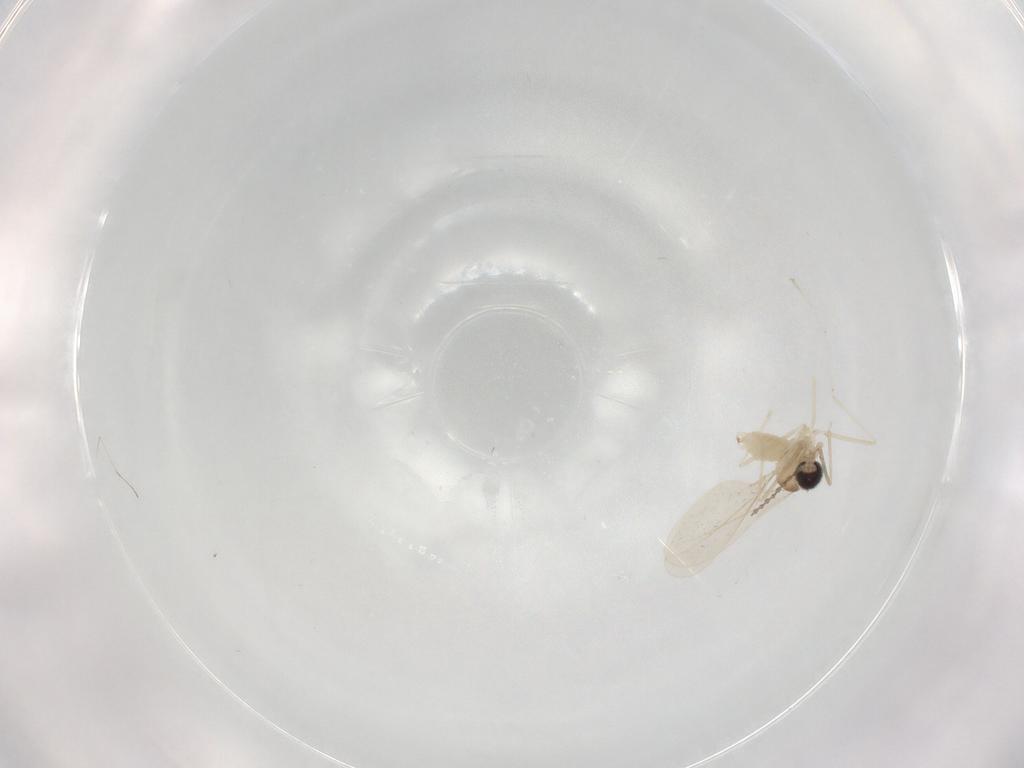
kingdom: Animalia
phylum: Arthropoda
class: Insecta
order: Diptera
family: Cecidomyiidae
